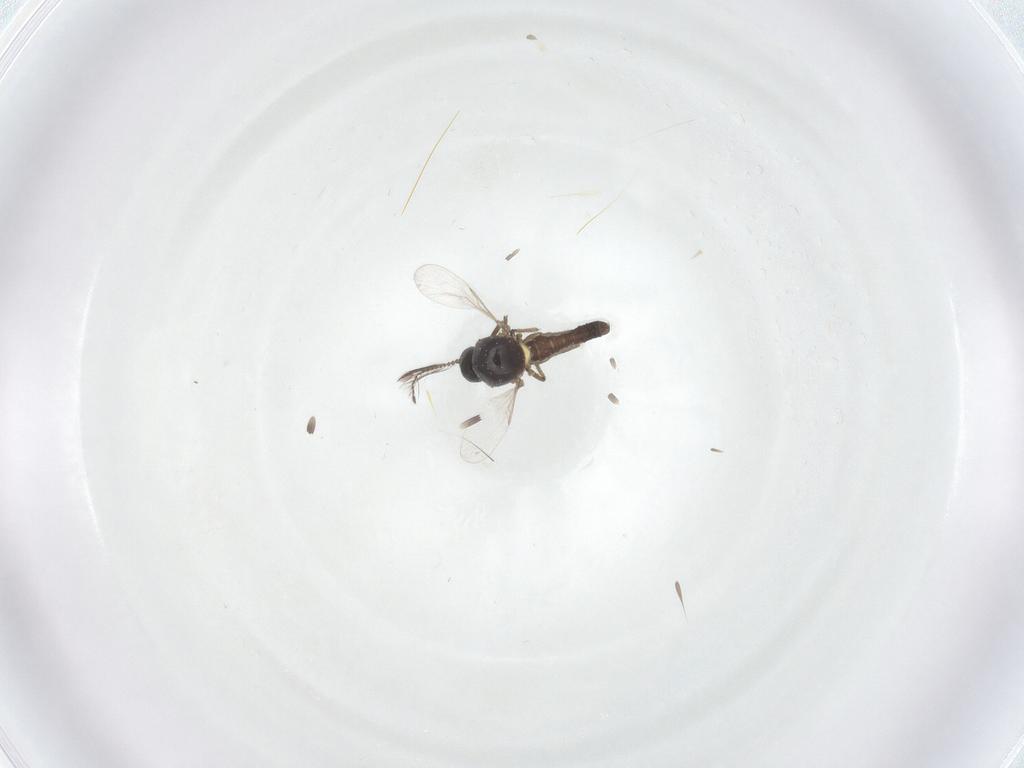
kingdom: Animalia
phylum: Arthropoda
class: Insecta
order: Diptera
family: Ceratopogonidae
